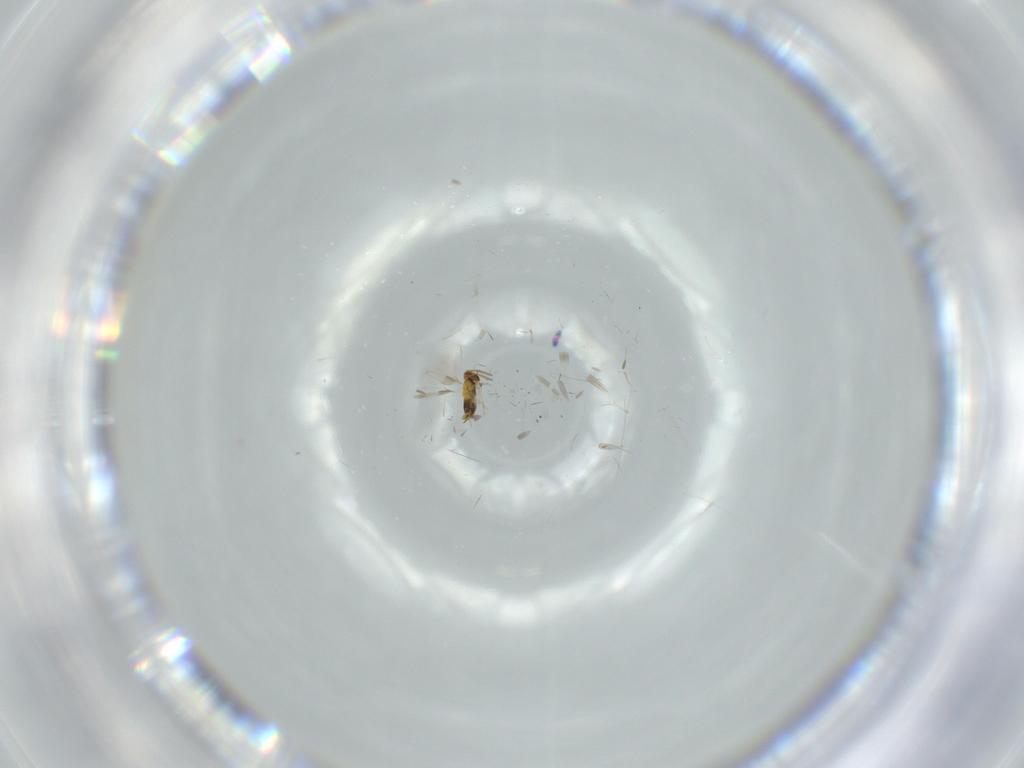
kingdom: Animalia
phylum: Arthropoda
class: Insecta
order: Hymenoptera
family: Aphelinidae
